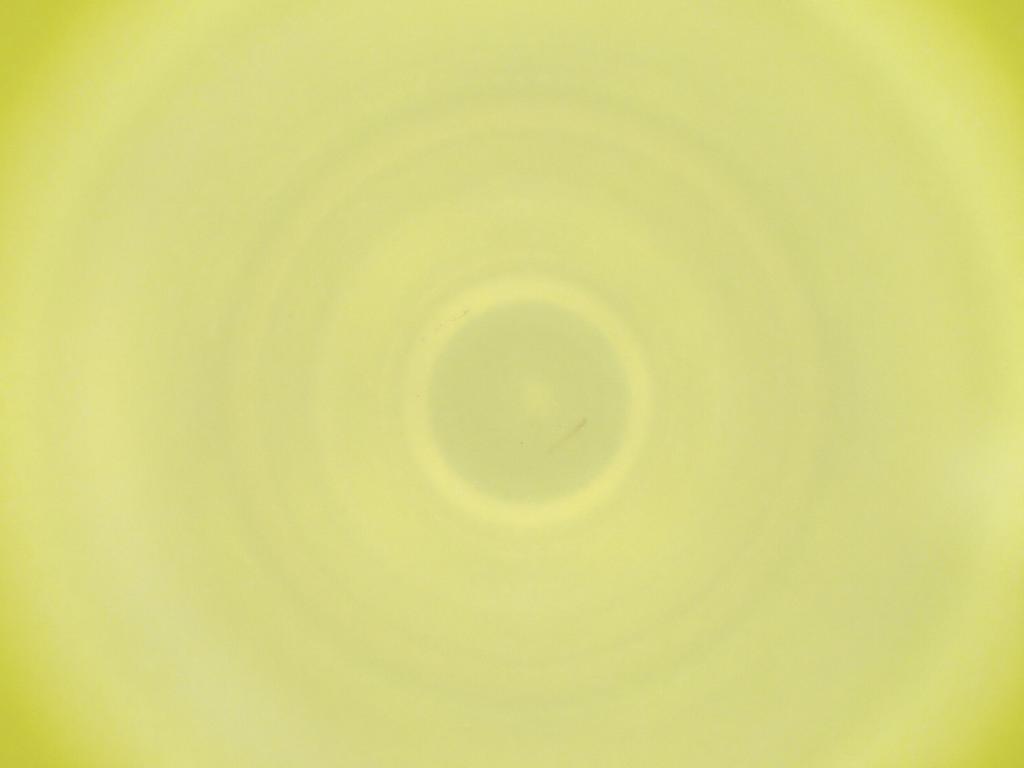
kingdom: Animalia
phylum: Arthropoda
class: Insecta
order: Diptera
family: Cecidomyiidae
